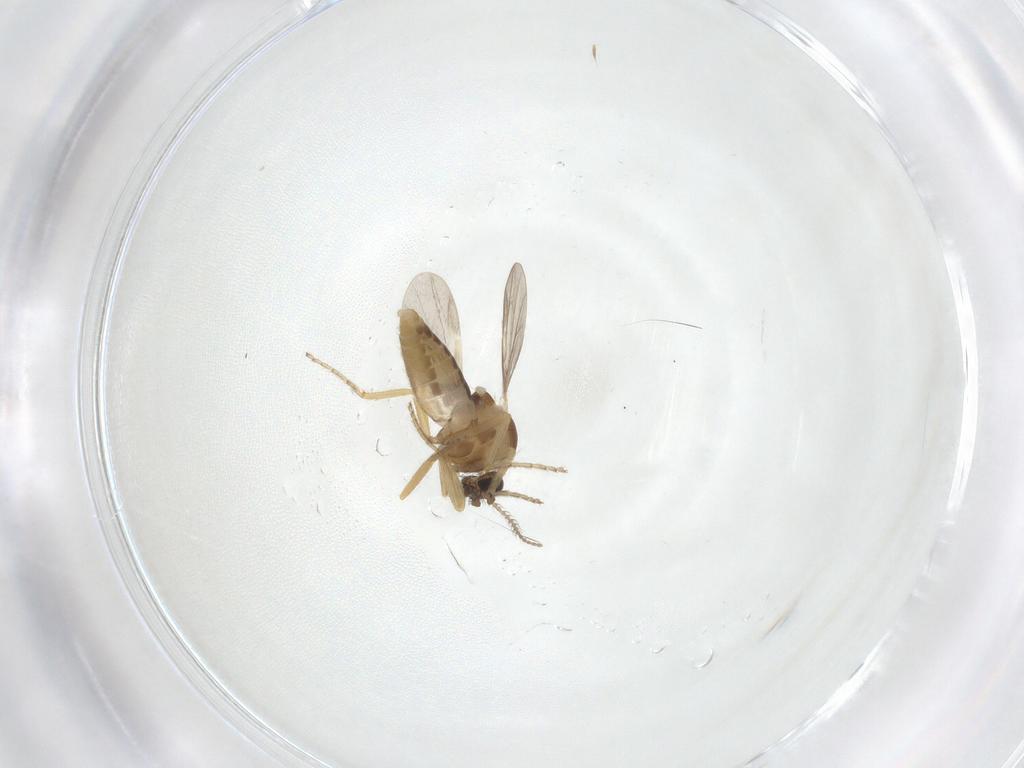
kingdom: Animalia
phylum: Arthropoda
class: Insecta
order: Diptera
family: Ceratopogonidae
